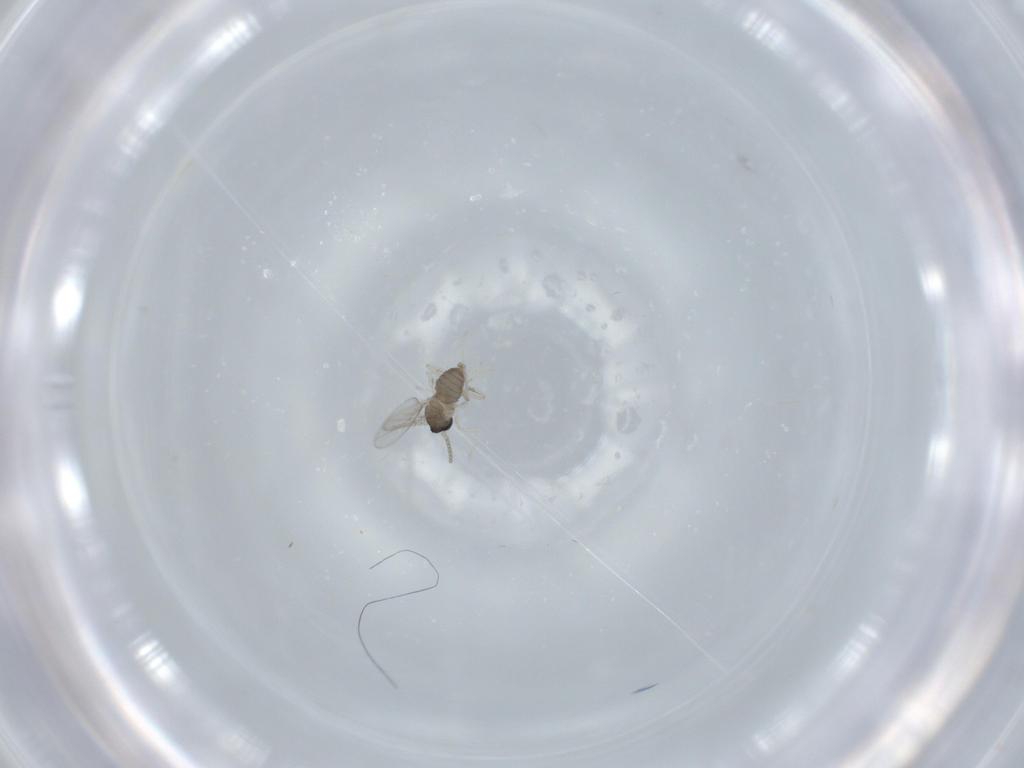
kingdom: Animalia
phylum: Arthropoda
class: Insecta
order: Diptera
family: Cecidomyiidae
